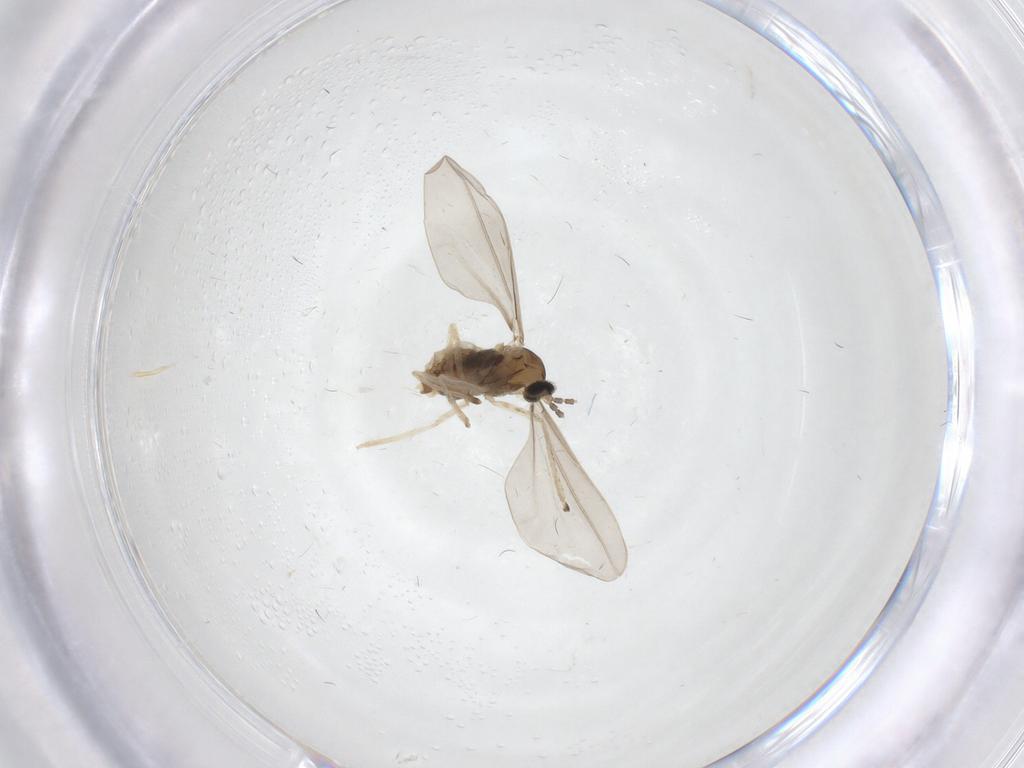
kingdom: Animalia
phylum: Arthropoda
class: Insecta
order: Diptera
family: Cecidomyiidae
